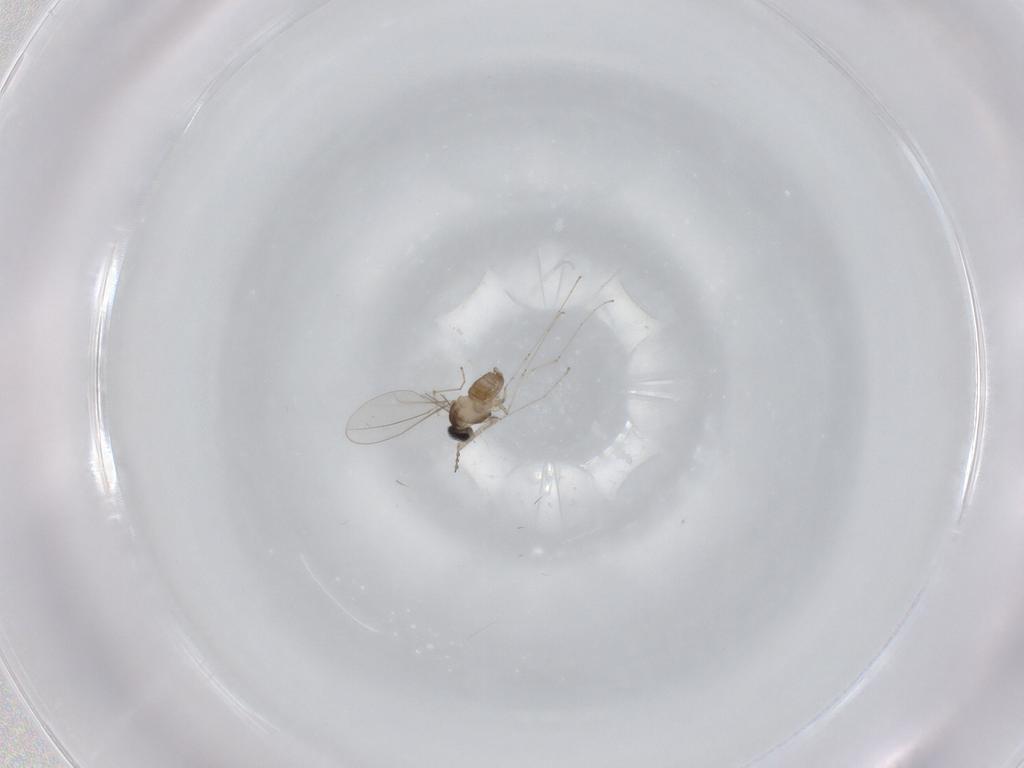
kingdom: Animalia
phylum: Arthropoda
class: Insecta
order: Diptera
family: Cecidomyiidae
